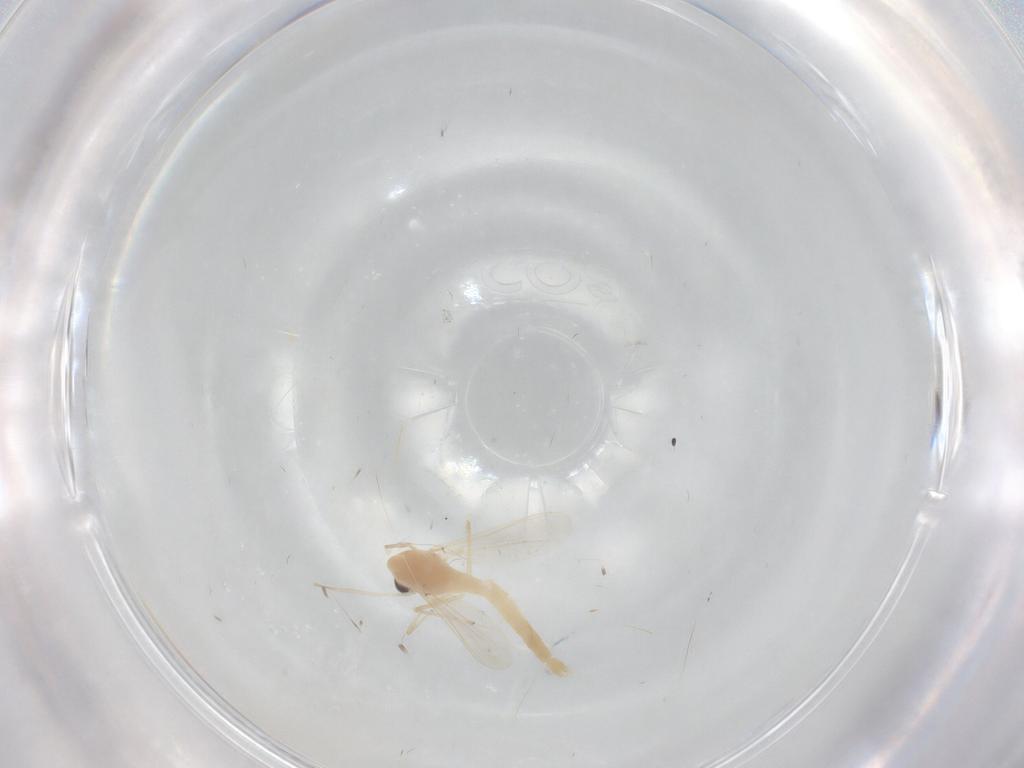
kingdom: Animalia
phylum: Arthropoda
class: Insecta
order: Diptera
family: Chironomidae
